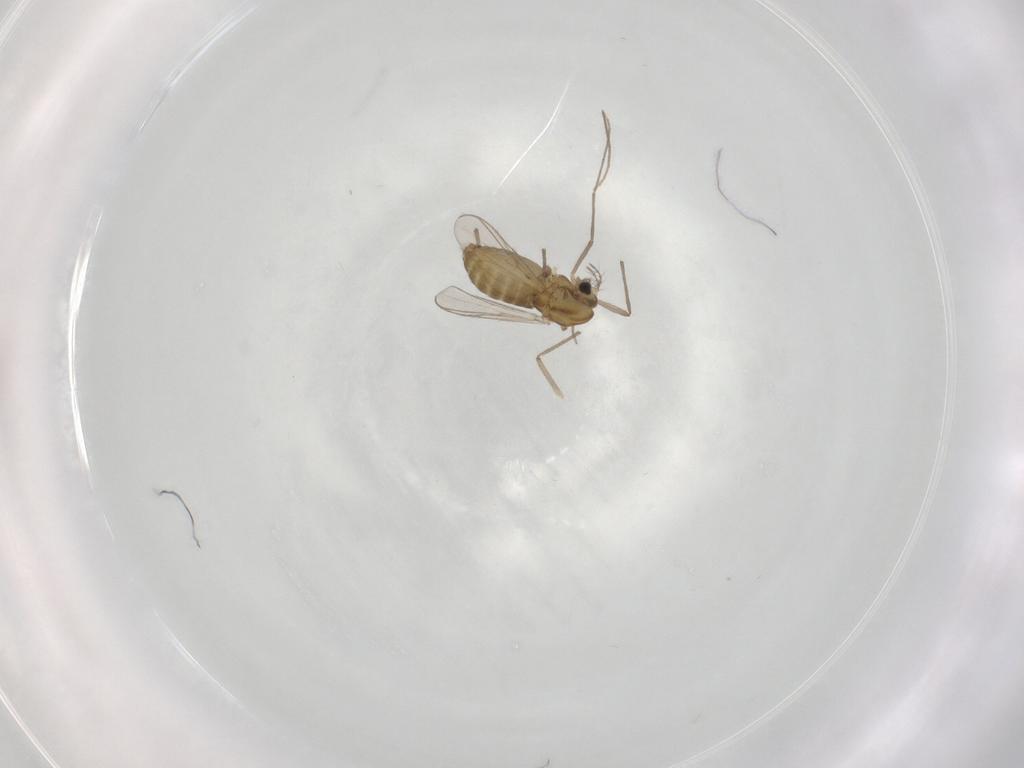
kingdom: Animalia
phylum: Arthropoda
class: Insecta
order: Diptera
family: Chironomidae
